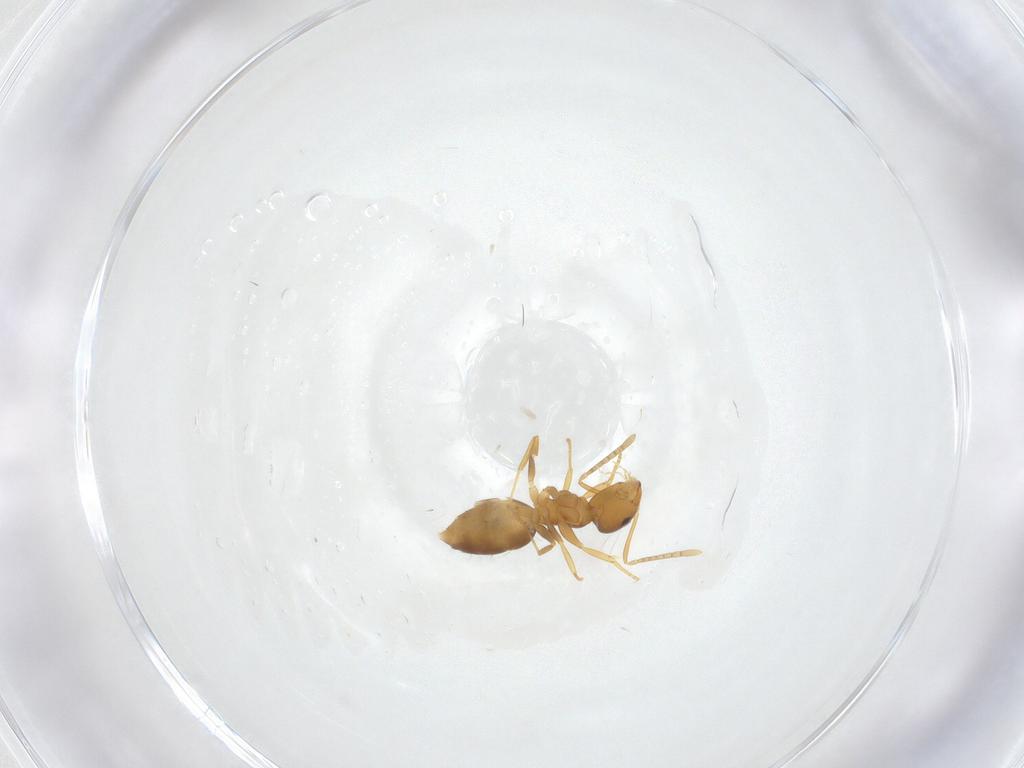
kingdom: Animalia
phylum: Arthropoda
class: Insecta
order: Hymenoptera
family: Formicidae
